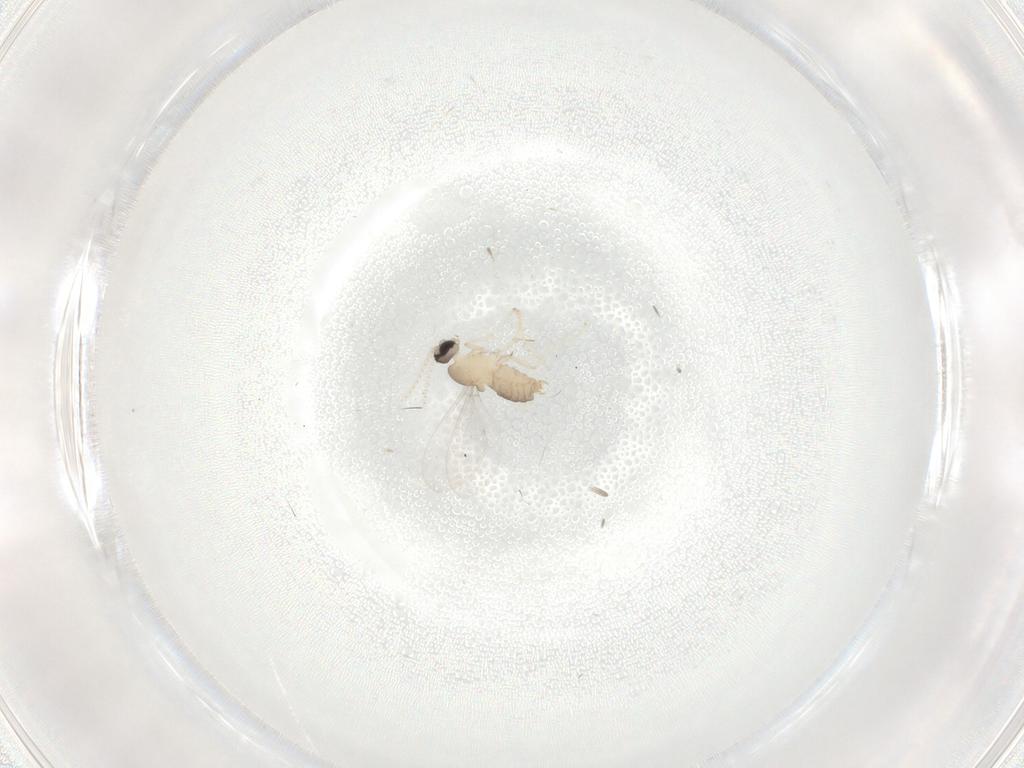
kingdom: Animalia
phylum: Arthropoda
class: Insecta
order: Diptera
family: Cecidomyiidae
